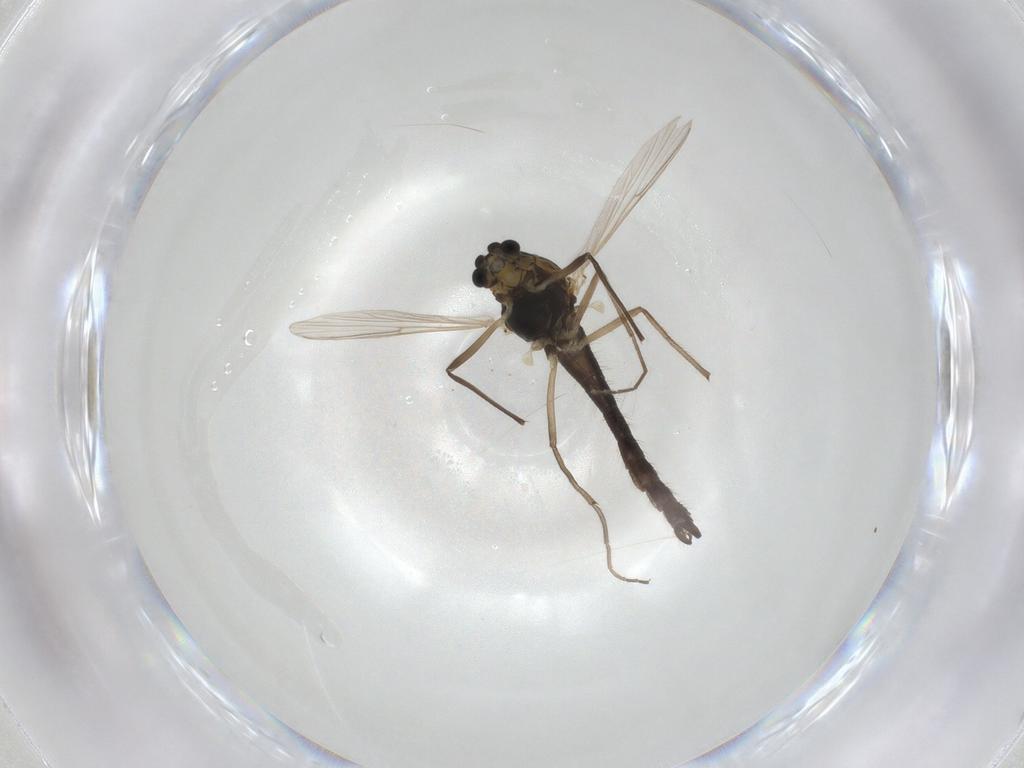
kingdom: Animalia
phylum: Arthropoda
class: Insecta
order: Diptera
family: Chironomidae
